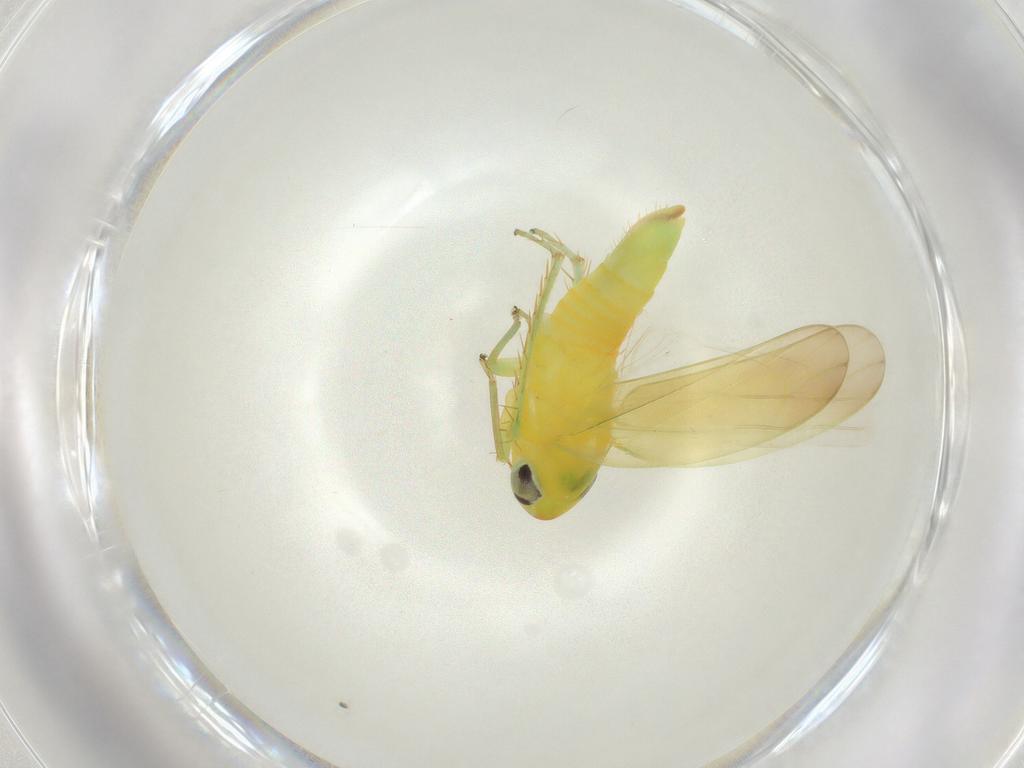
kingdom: Animalia
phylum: Arthropoda
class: Insecta
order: Hemiptera
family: Cicadellidae
